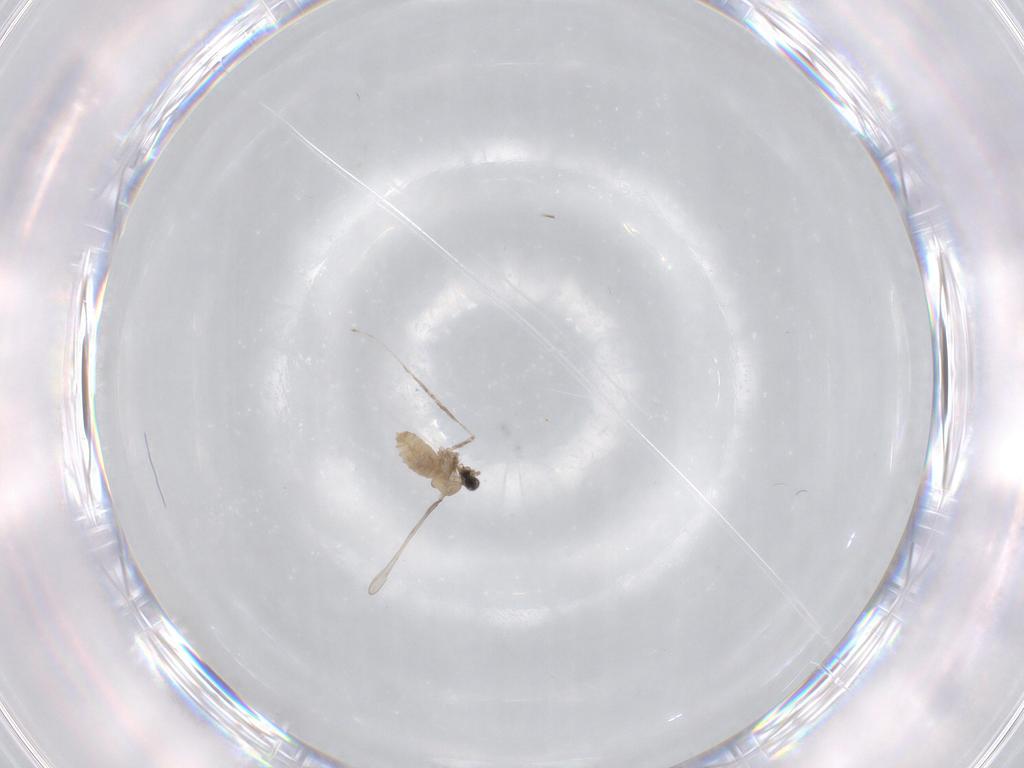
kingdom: Animalia
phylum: Arthropoda
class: Insecta
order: Diptera
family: Cecidomyiidae
